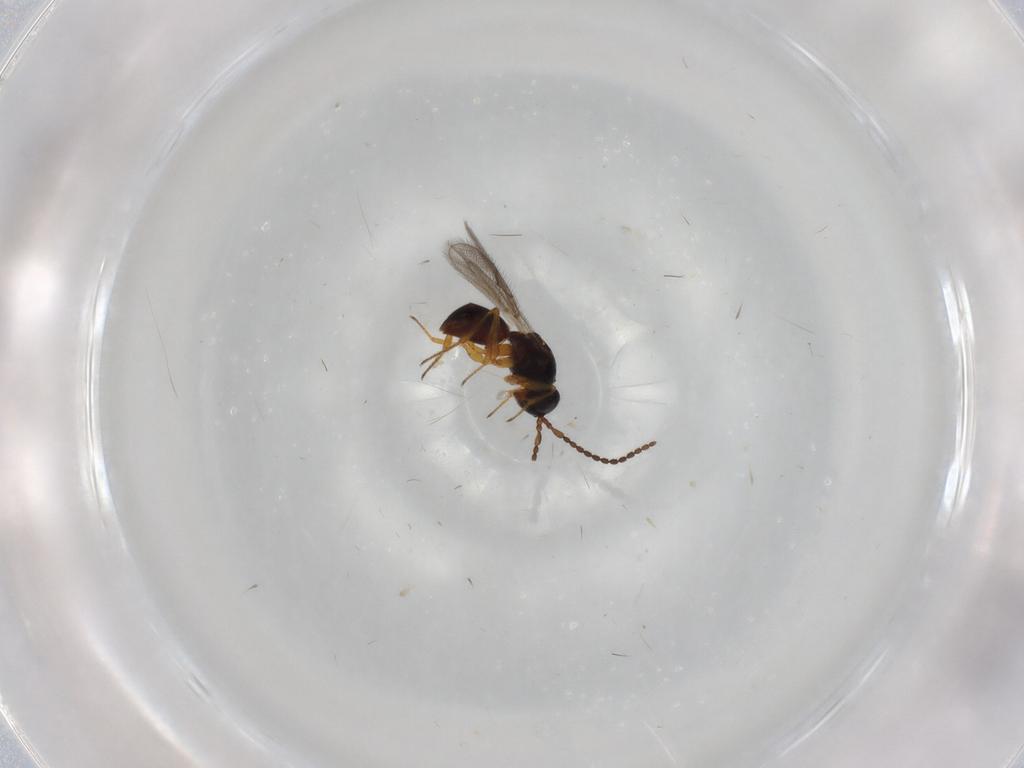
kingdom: Animalia
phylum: Arthropoda
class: Insecta
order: Hymenoptera
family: Figitidae
